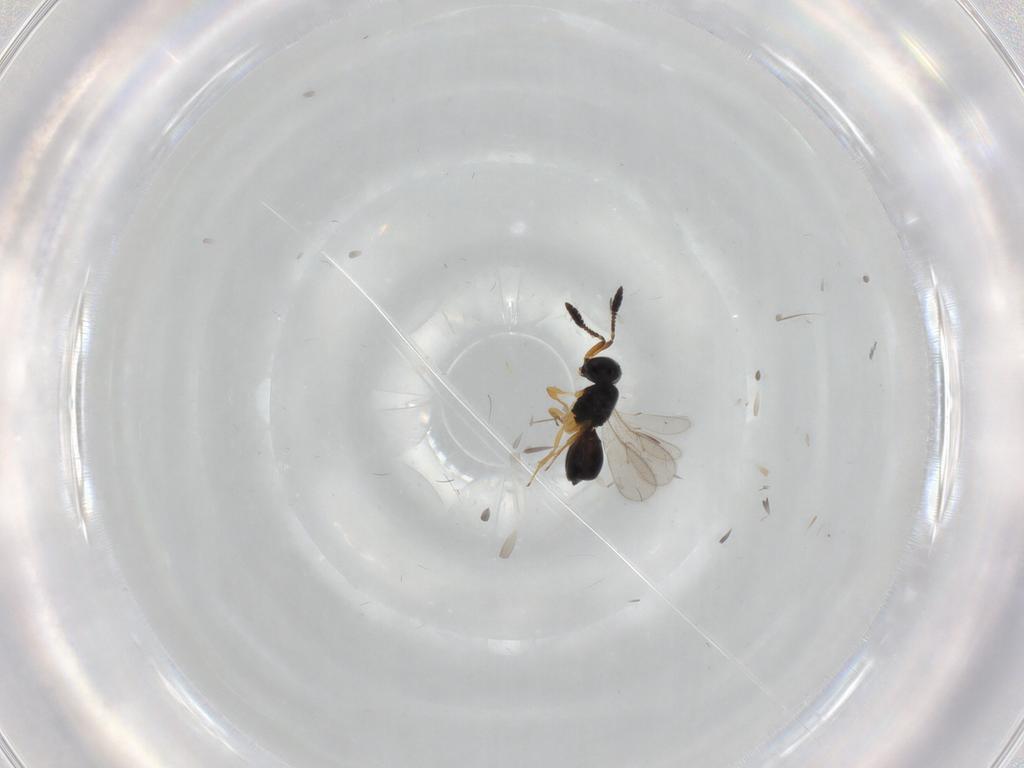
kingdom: Animalia
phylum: Arthropoda
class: Insecta
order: Hymenoptera
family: Scelionidae
